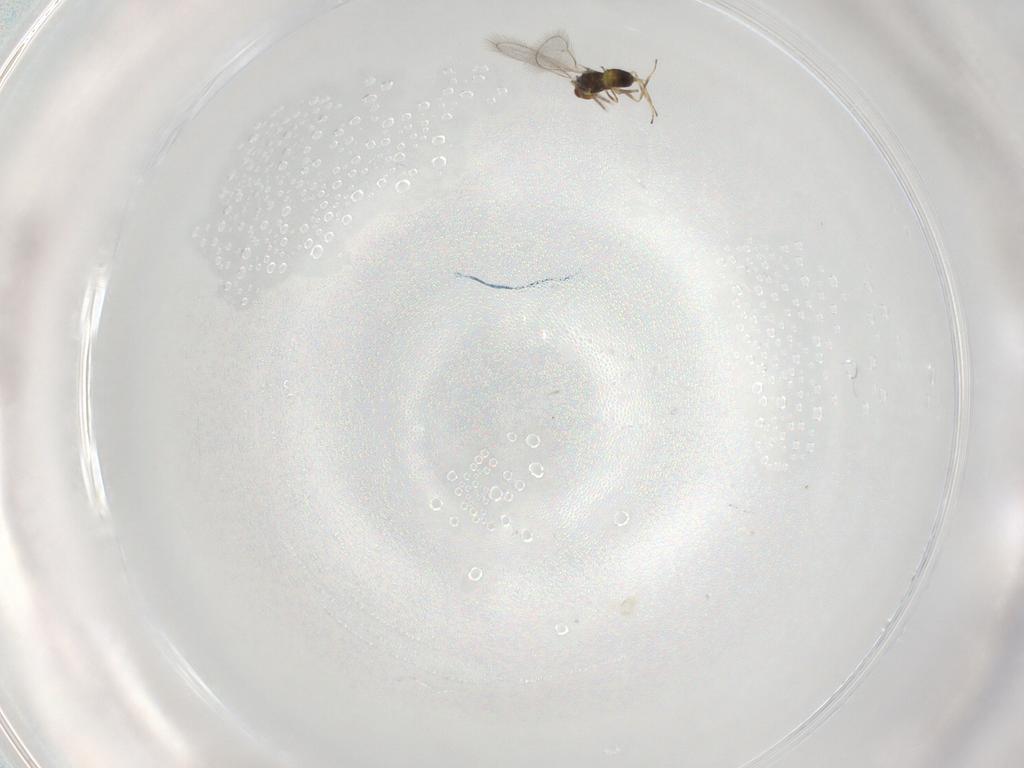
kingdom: Animalia
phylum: Arthropoda
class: Insecta
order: Hymenoptera
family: Eulophidae
